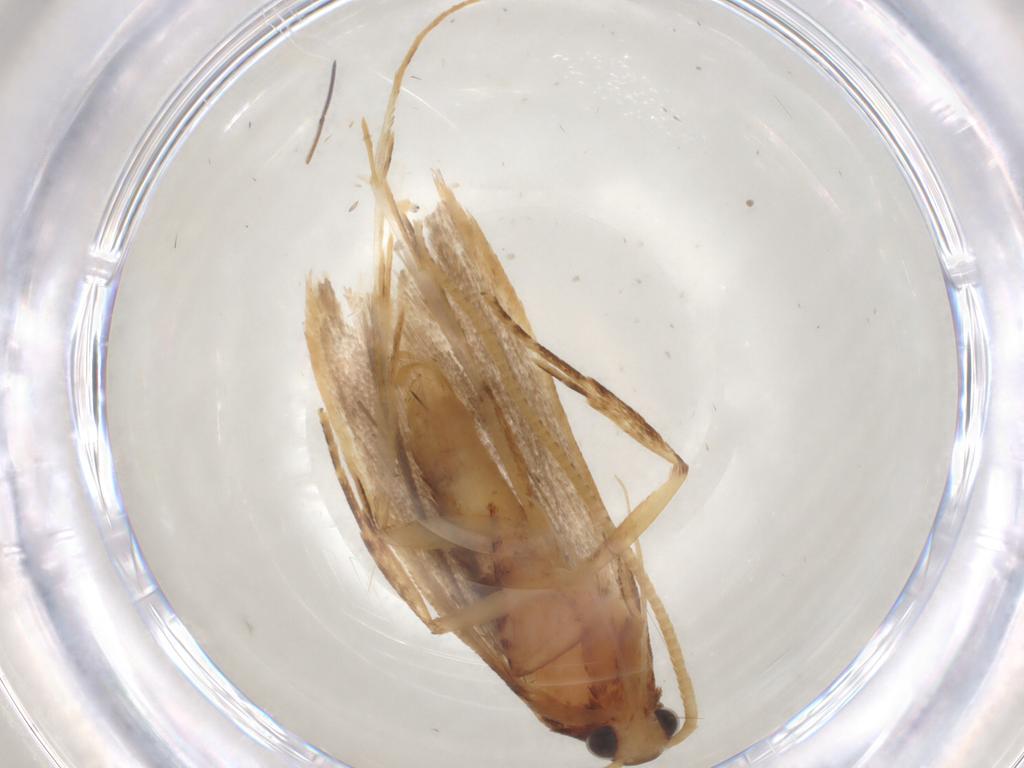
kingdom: Animalia
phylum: Arthropoda
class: Insecta
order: Lepidoptera
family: Lecithoceridae
